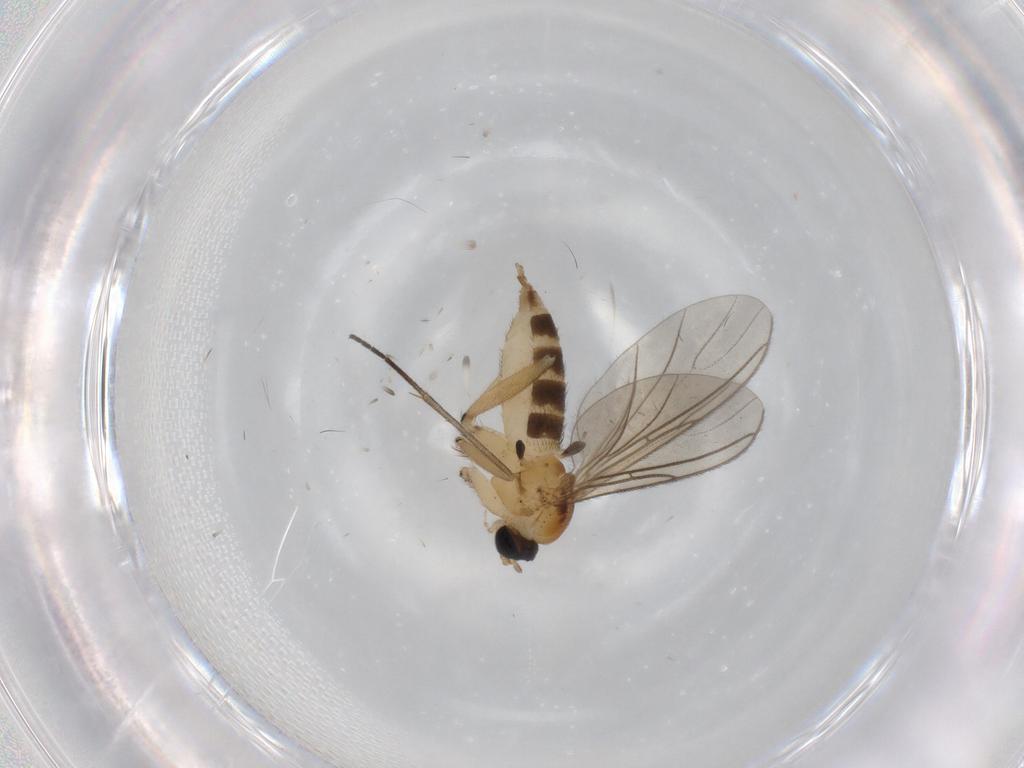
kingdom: Animalia
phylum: Arthropoda
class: Insecta
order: Diptera
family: Sciaridae
